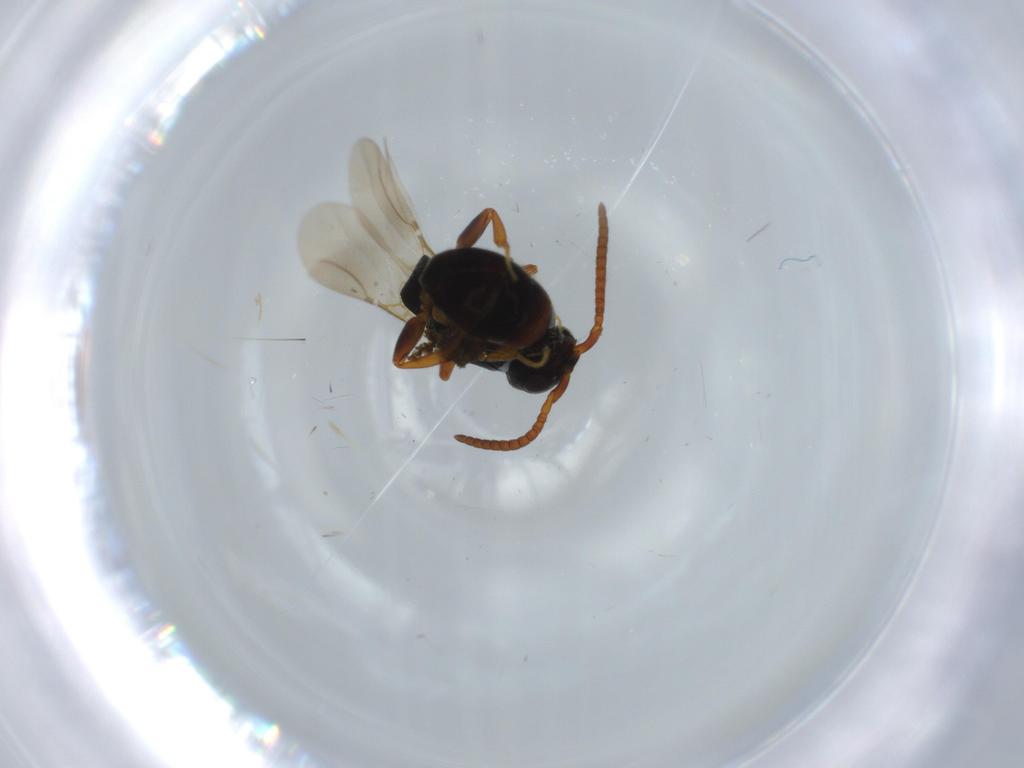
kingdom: Animalia
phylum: Arthropoda
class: Insecta
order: Hymenoptera
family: Bethylidae
